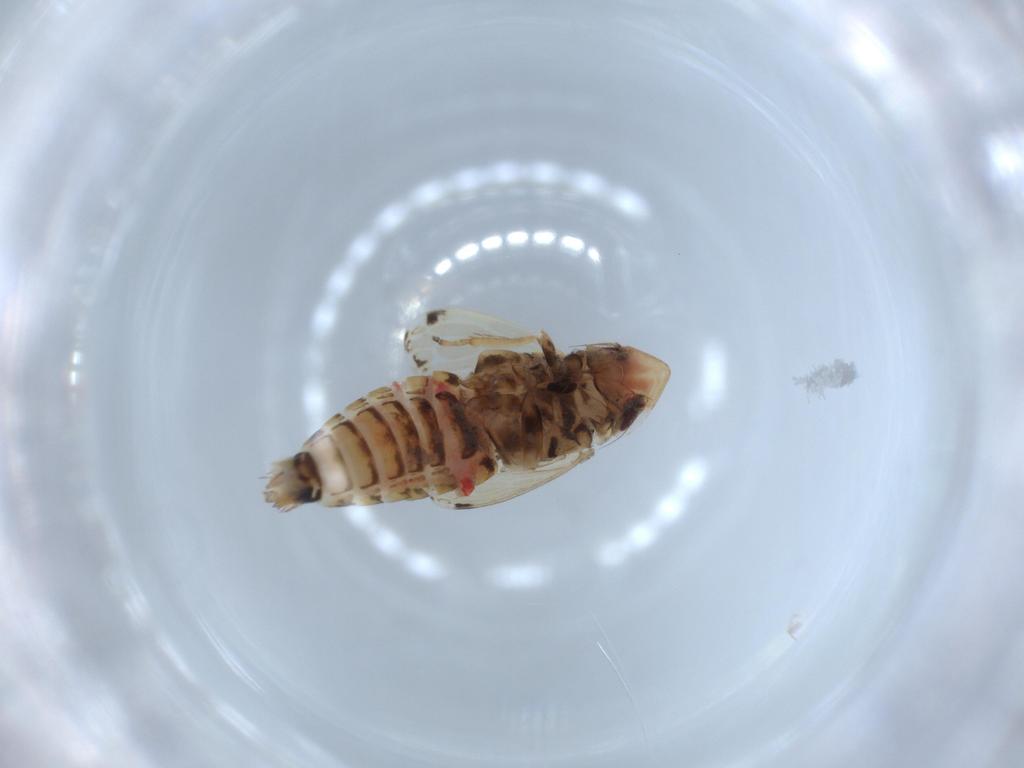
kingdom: Animalia
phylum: Arthropoda
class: Insecta
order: Hemiptera
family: Cicadellidae
